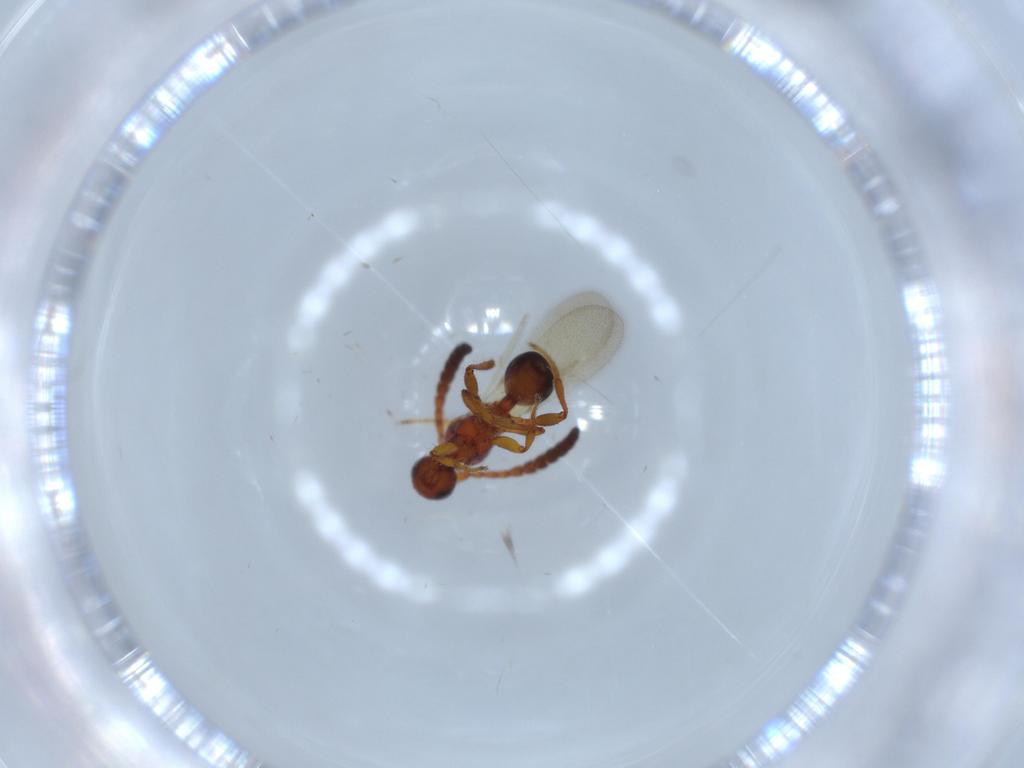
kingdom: Animalia
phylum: Arthropoda
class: Insecta
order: Hymenoptera
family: Diapriidae
